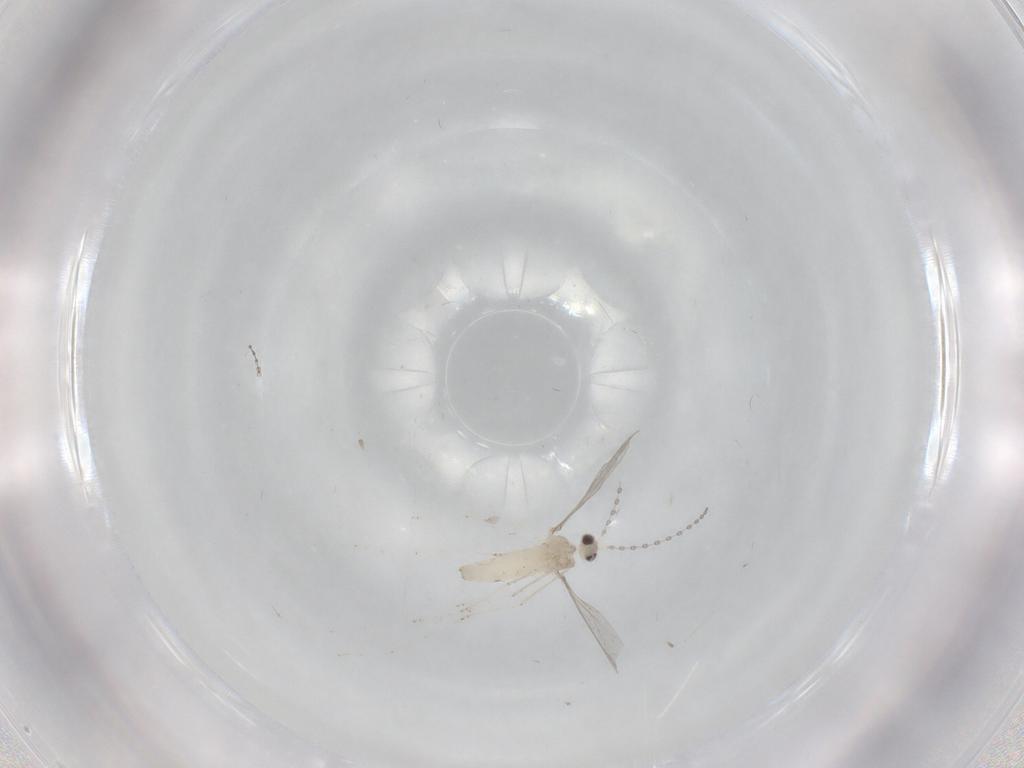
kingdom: Animalia
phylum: Arthropoda
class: Insecta
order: Diptera
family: Cecidomyiidae
